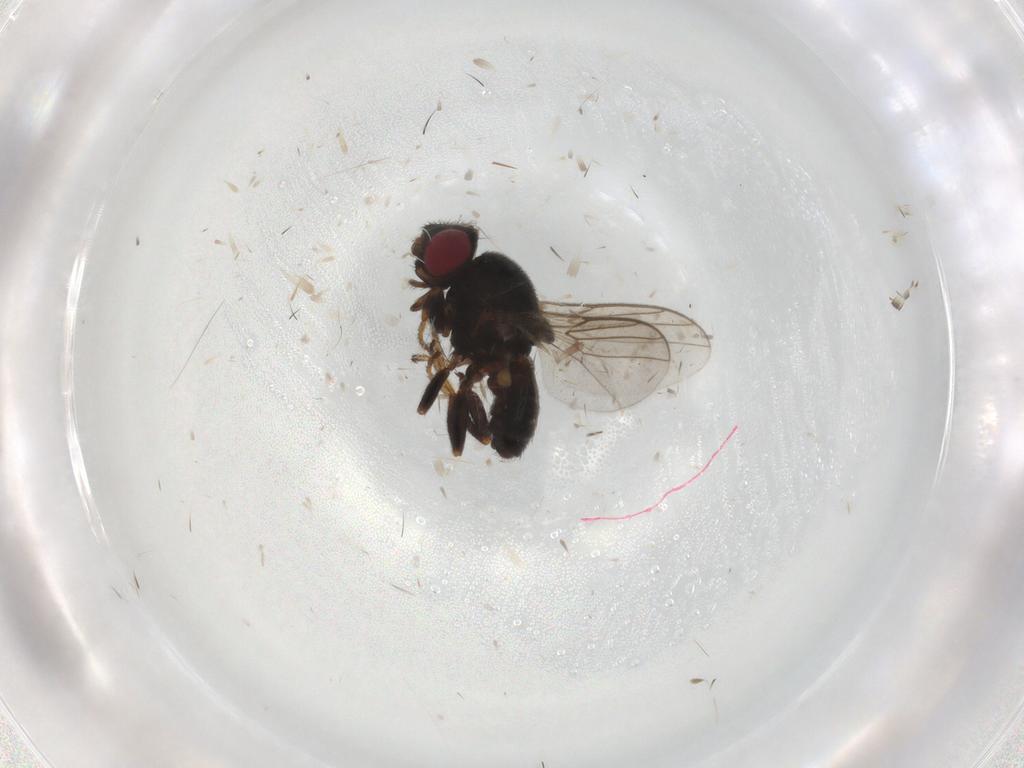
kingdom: Animalia
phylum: Arthropoda
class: Insecta
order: Diptera
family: Chloropidae
